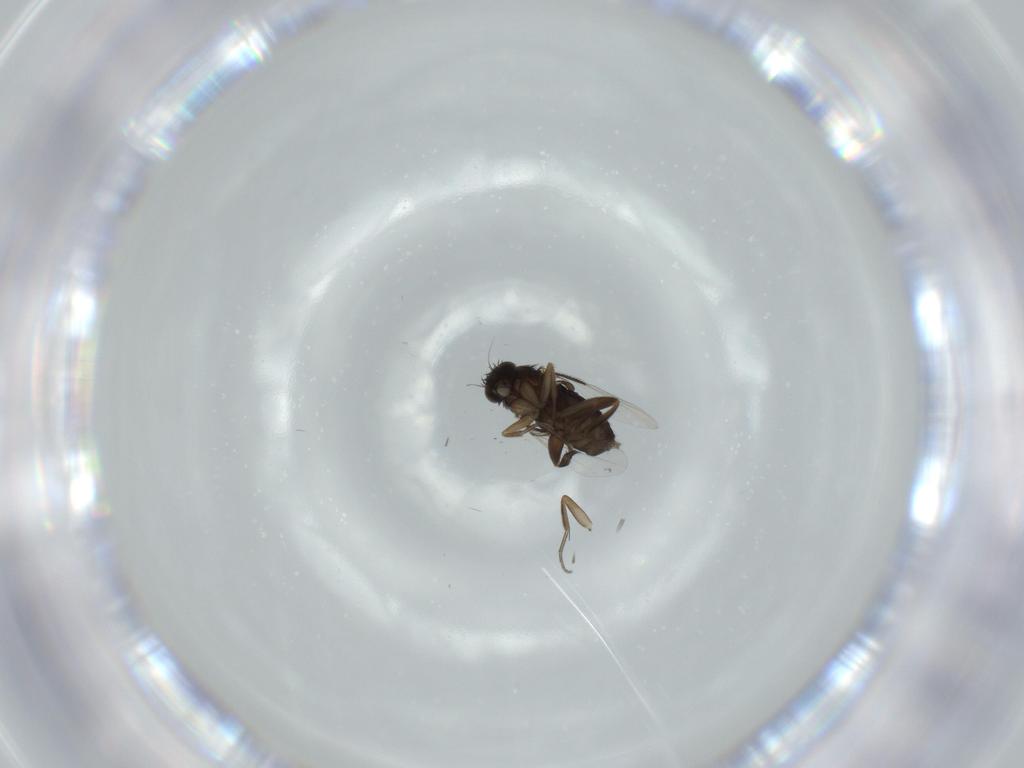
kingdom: Animalia
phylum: Arthropoda
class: Insecta
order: Diptera
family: Phoridae
